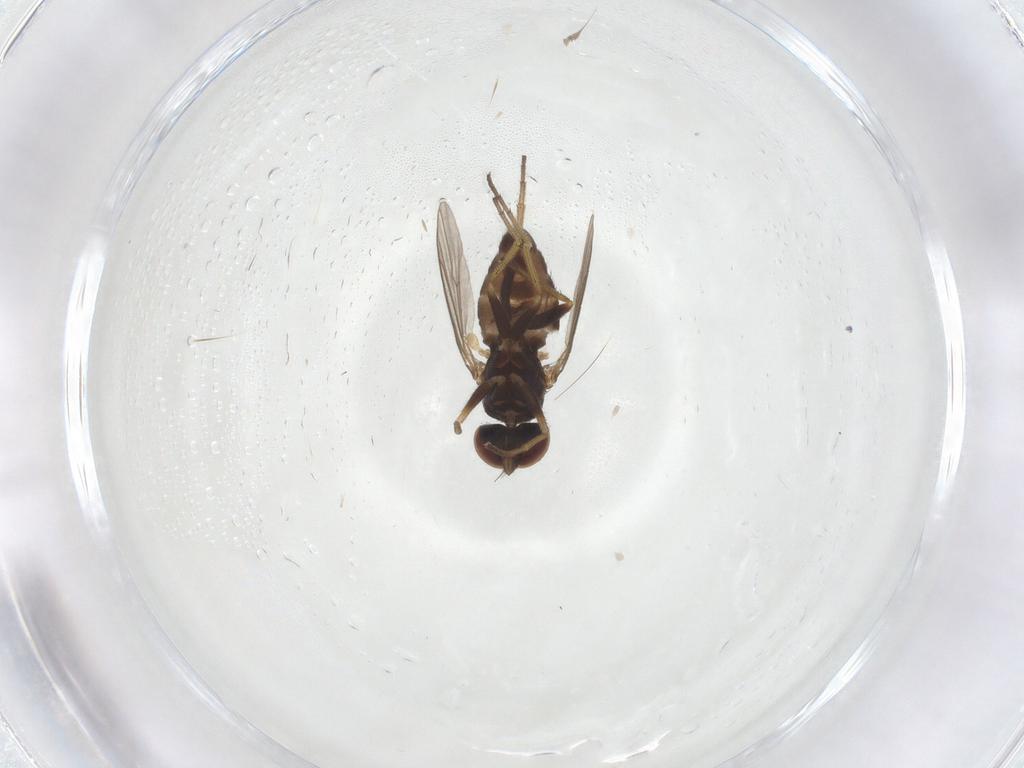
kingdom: Animalia
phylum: Arthropoda
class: Insecta
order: Diptera
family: Dolichopodidae
